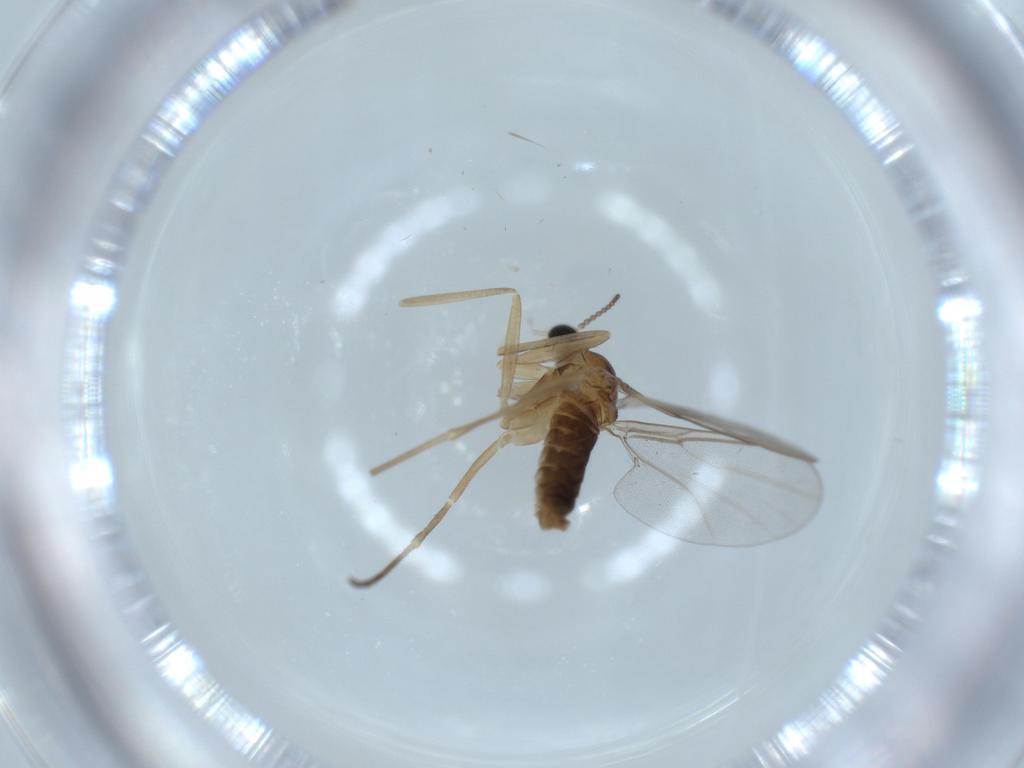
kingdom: Animalia
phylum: Arthropoda
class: Insecta
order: Diptera
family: Cecidomyiidae
